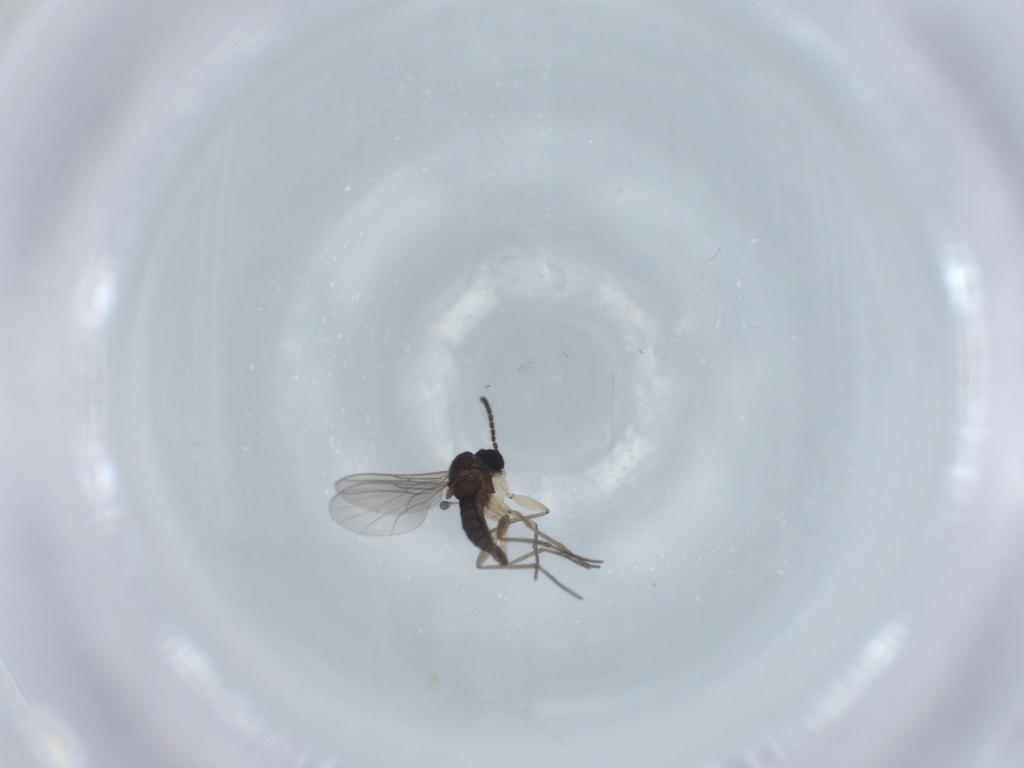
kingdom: Animalia
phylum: Arthropoda
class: Insecta
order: Diptera
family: Sciaridae
